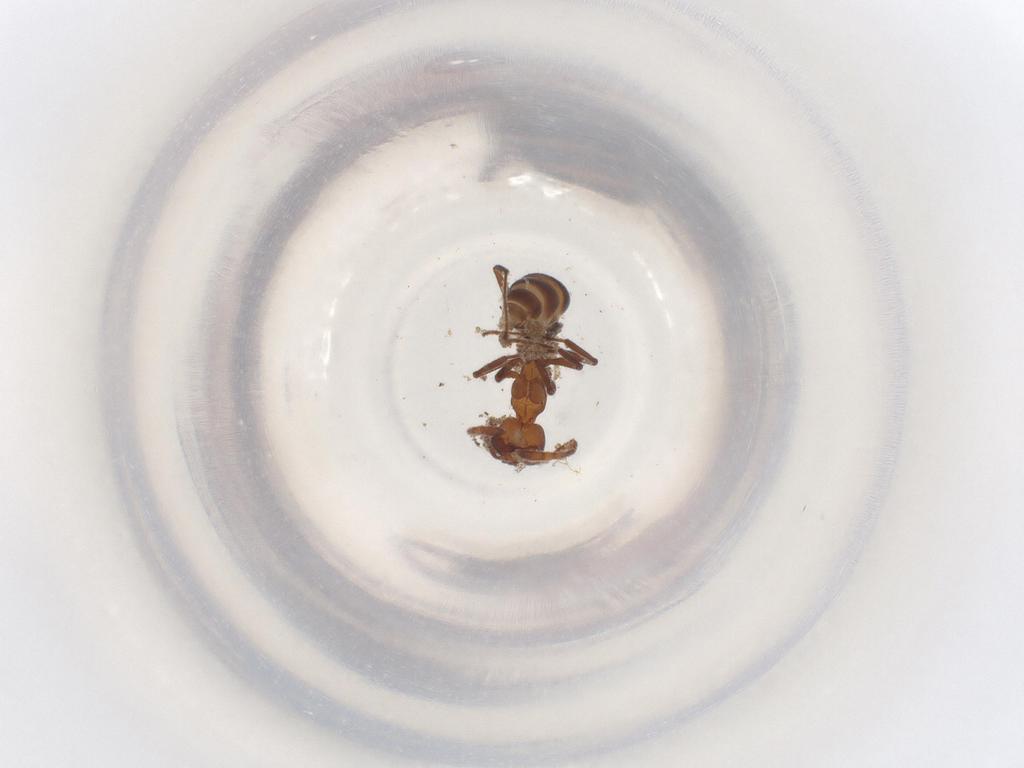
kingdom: Animalia
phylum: Arthropoda
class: Insecta
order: Hymenoptera
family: Formicidae
